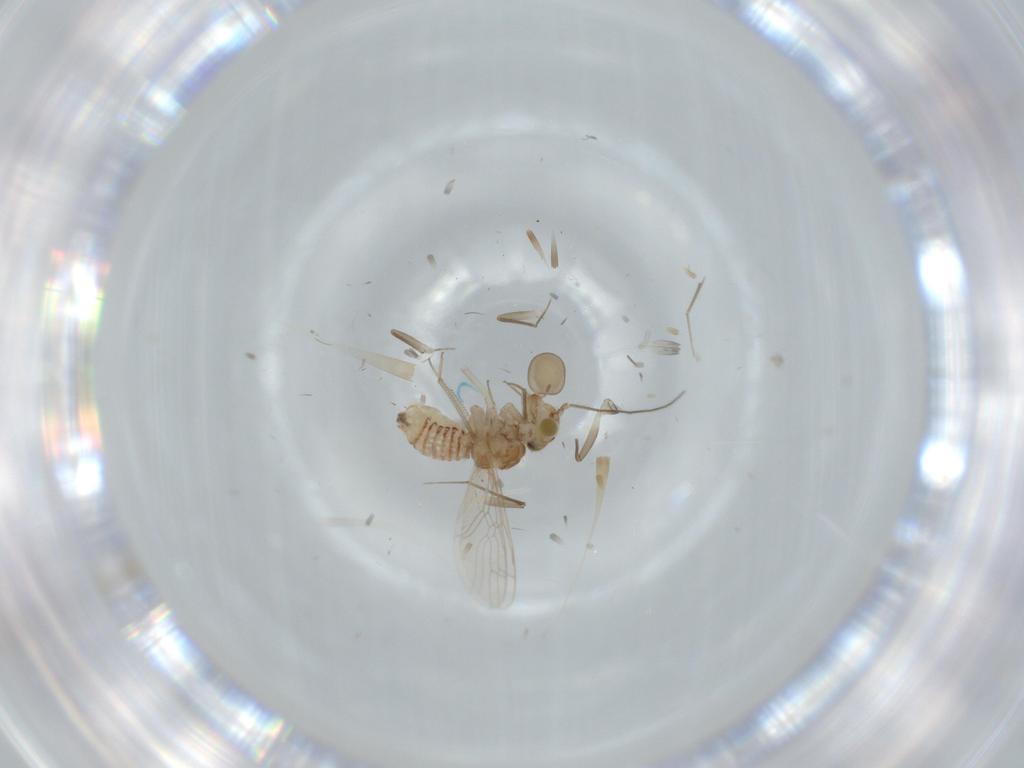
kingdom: Animalia
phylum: Arthropoda
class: Insecta
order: Psocodea
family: Lachesillidae
